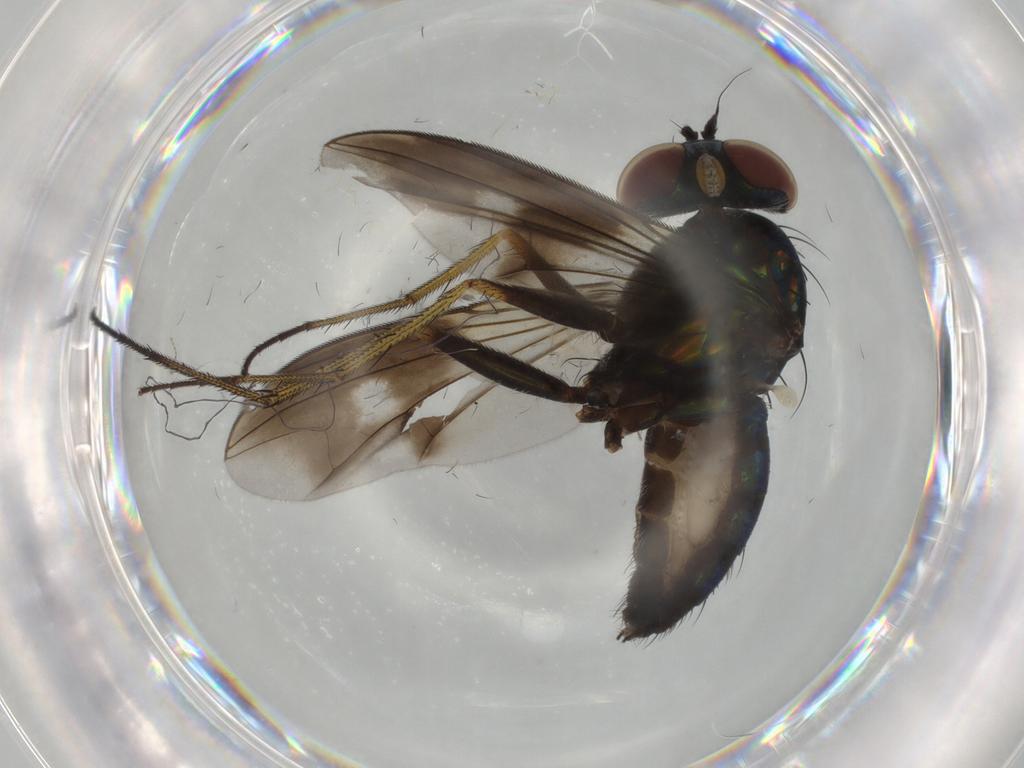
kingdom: Animalia
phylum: Arthropoda
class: Insecta
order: Diptera
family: Dolichopodidae
